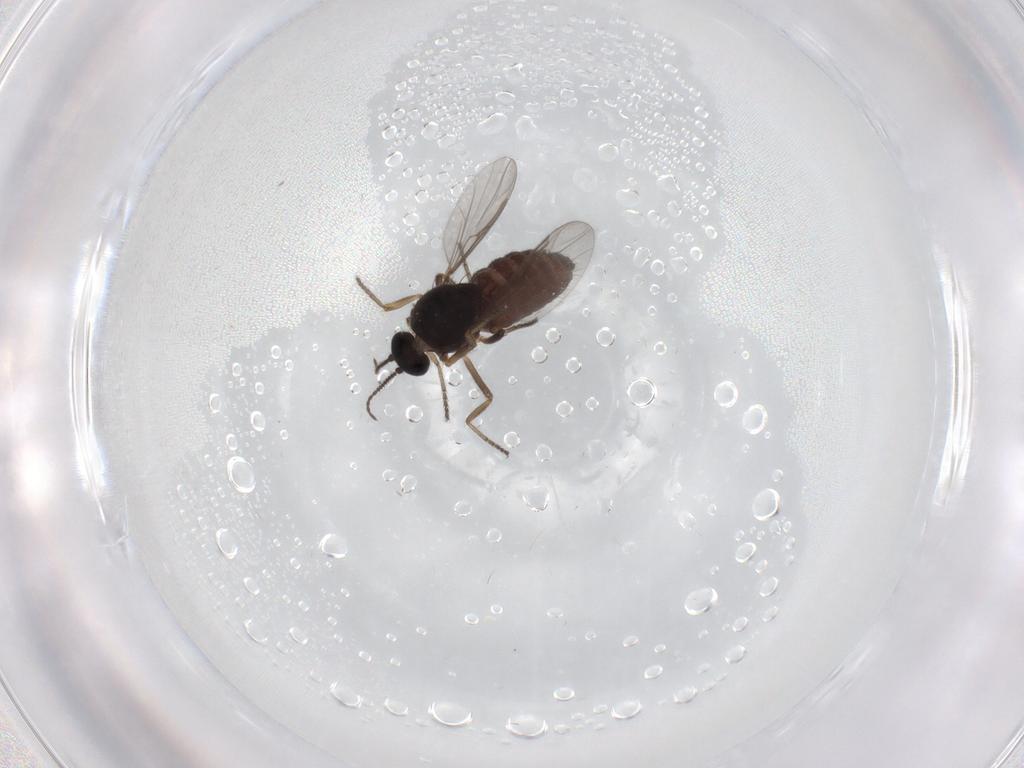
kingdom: Animalia
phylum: Arthropoda
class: Insecta
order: Diptera
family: Ceratopogonidae
